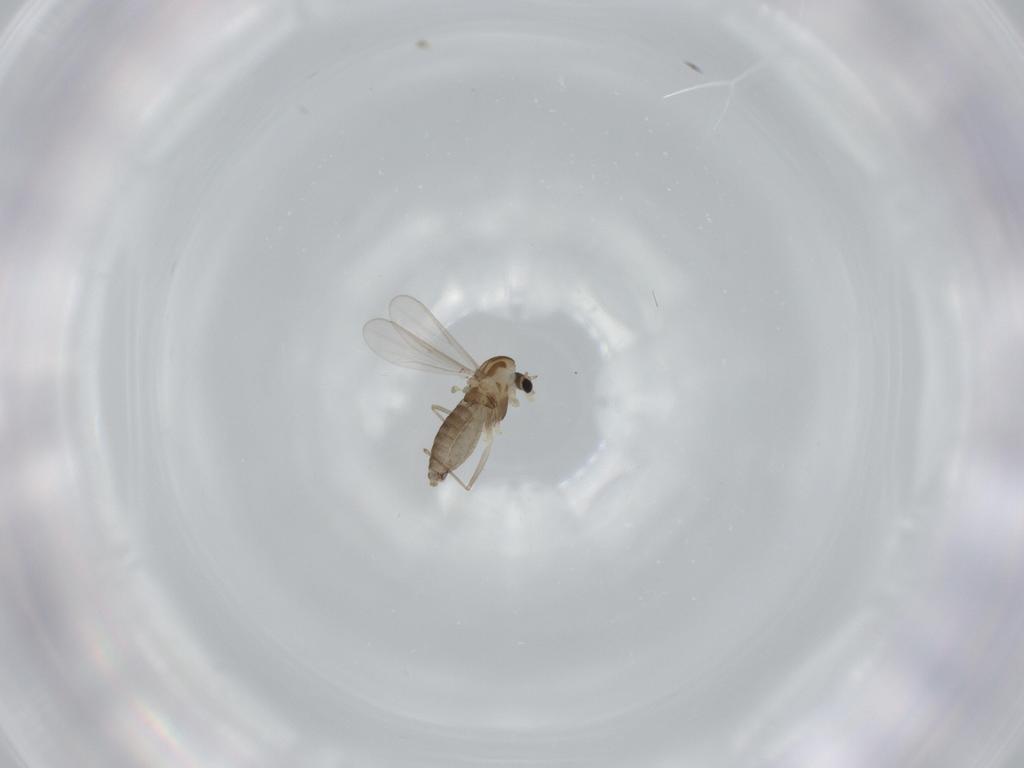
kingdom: Animalia
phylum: Arthropoda
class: Insecta
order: Diptera
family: Chironomidae
